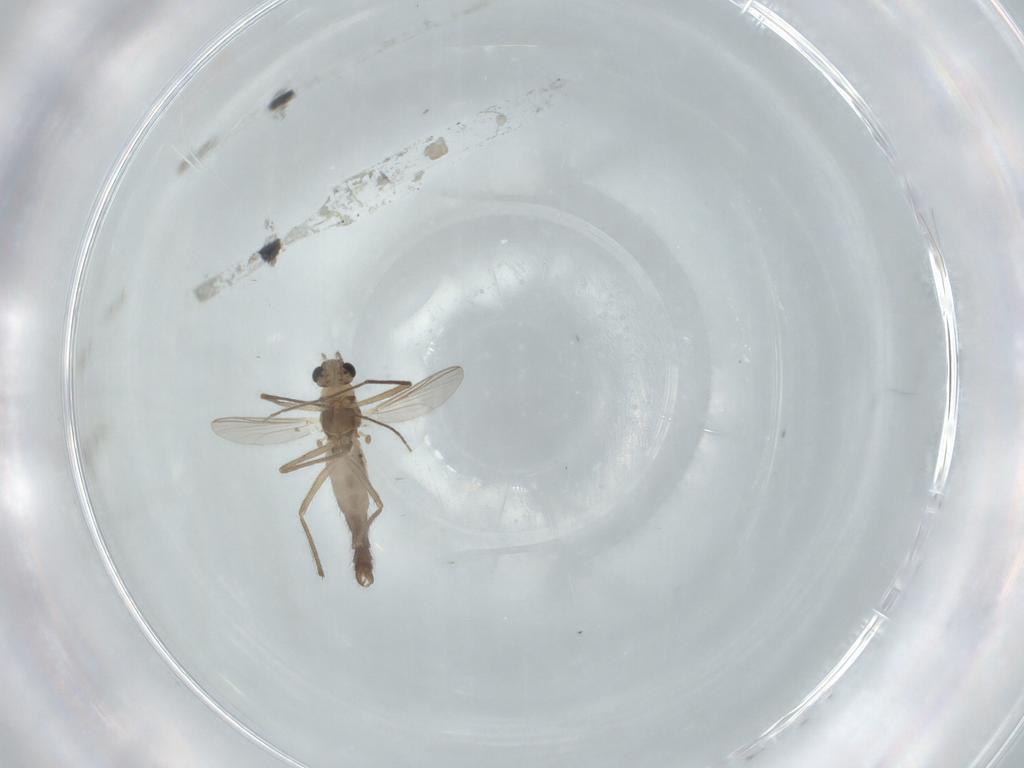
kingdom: Animalia
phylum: Arthropoda
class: Insecta
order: Diptera
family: Chironomidae
